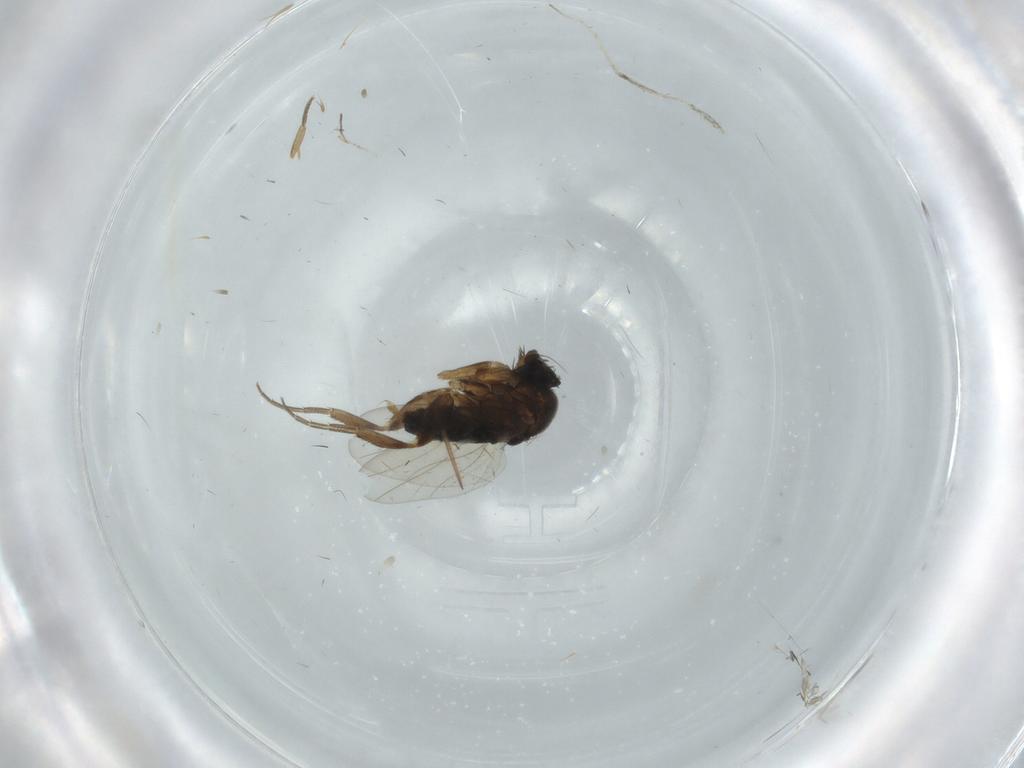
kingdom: Animalia
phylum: Arthropoda
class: Insecta
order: Diptera
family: Phoridae
